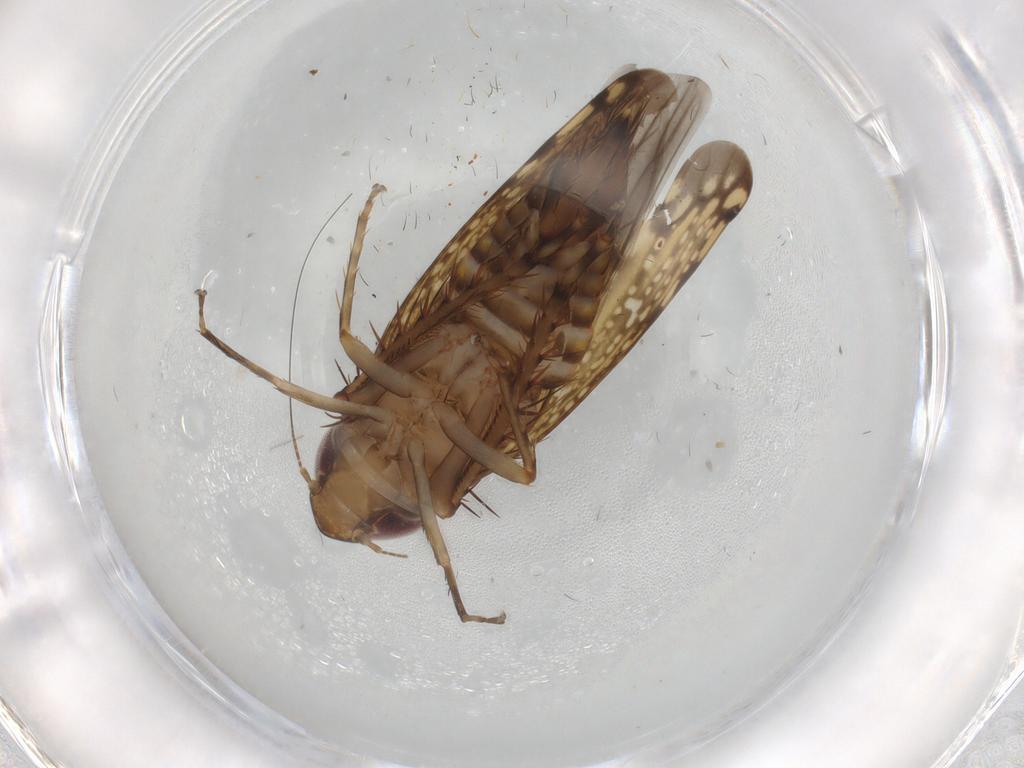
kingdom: Animalia
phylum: Arthropoda
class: Insecta
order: Hemiptera
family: Cicadellidae
